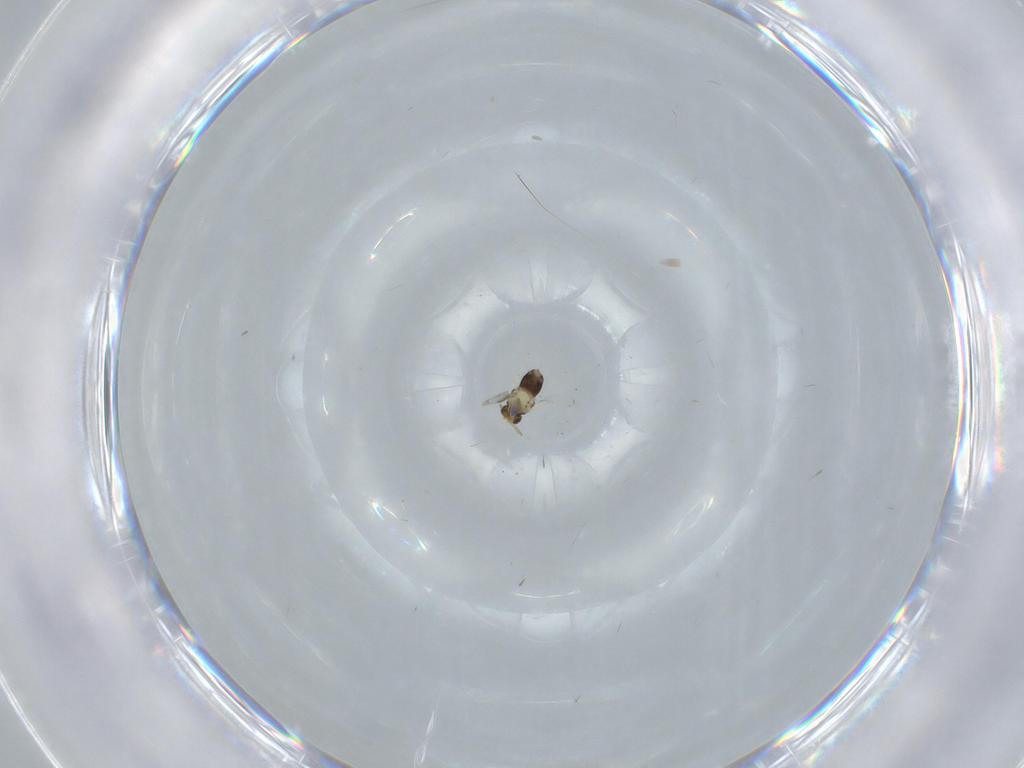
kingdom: Animalia
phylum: Arthropoda
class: Insecta
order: Hymenoptera
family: Aphelinidae
